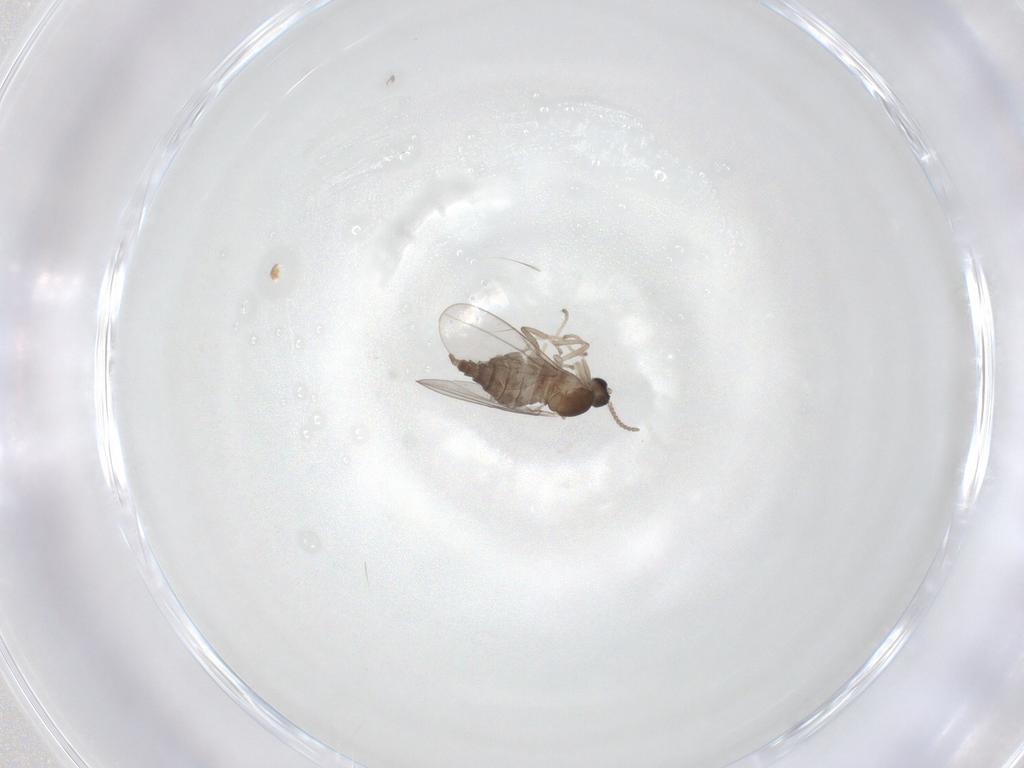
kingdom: Animalia
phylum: Arthropoda
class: Insecta
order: Diptera
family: Cecidomyiidae
